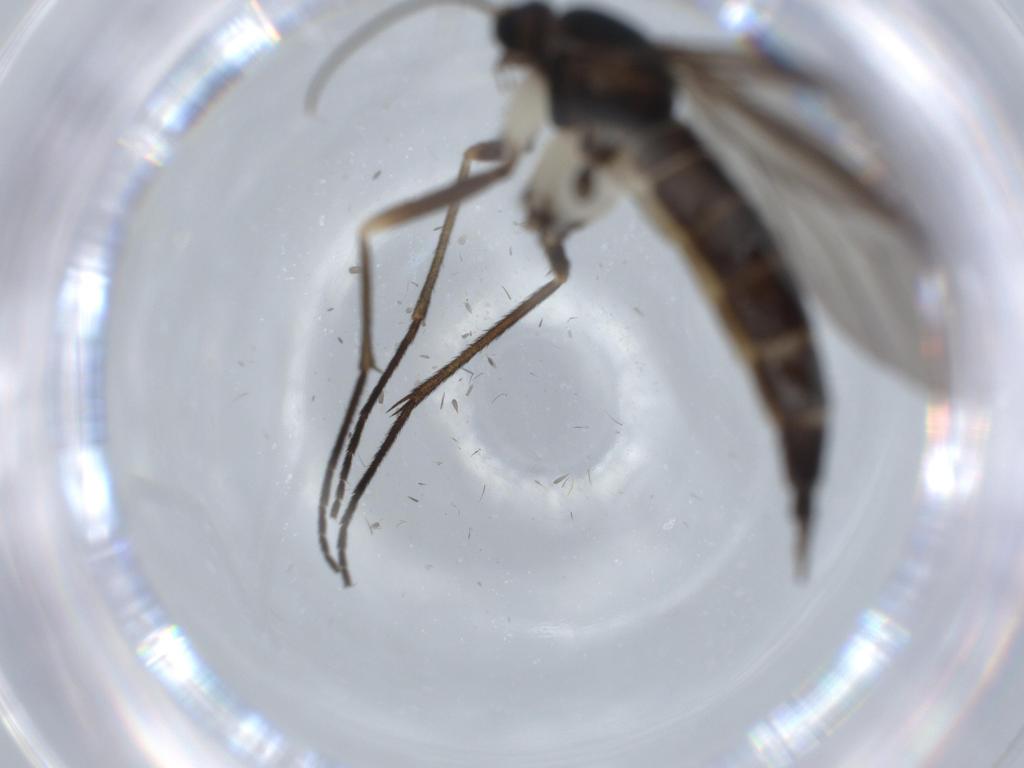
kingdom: Animalia
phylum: Arthropoda
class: Insecta
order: Diptera
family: Sciaridae
